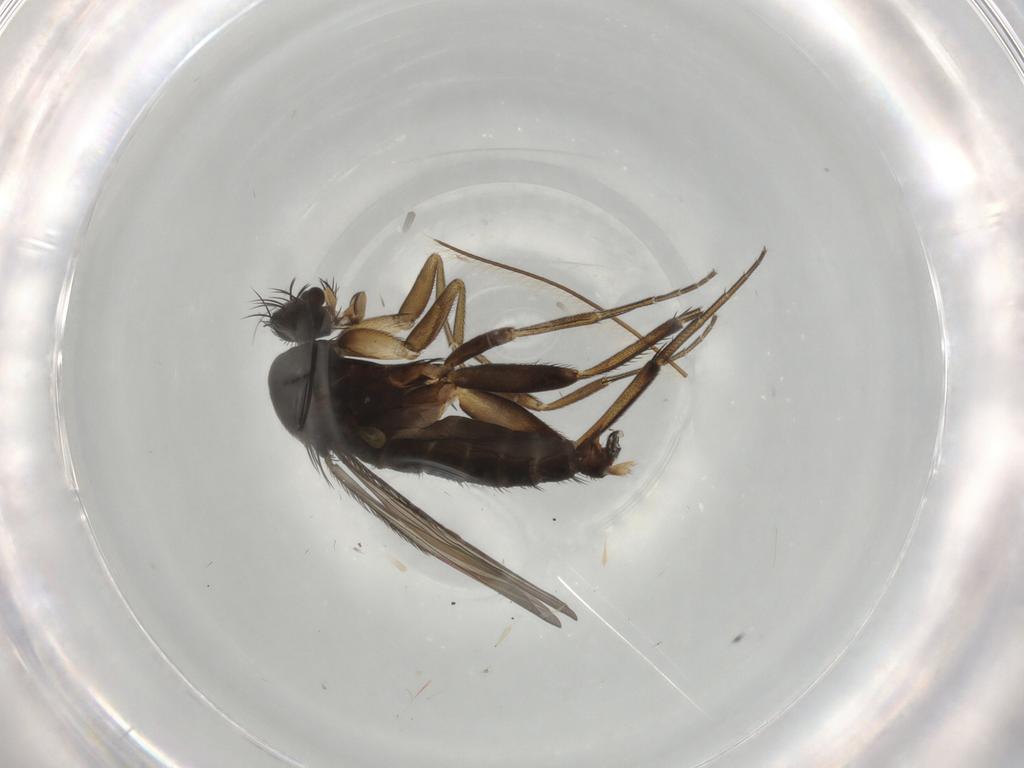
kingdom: Animalia
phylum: Arthropoda
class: Insecta
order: Diptera
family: Phoridae
